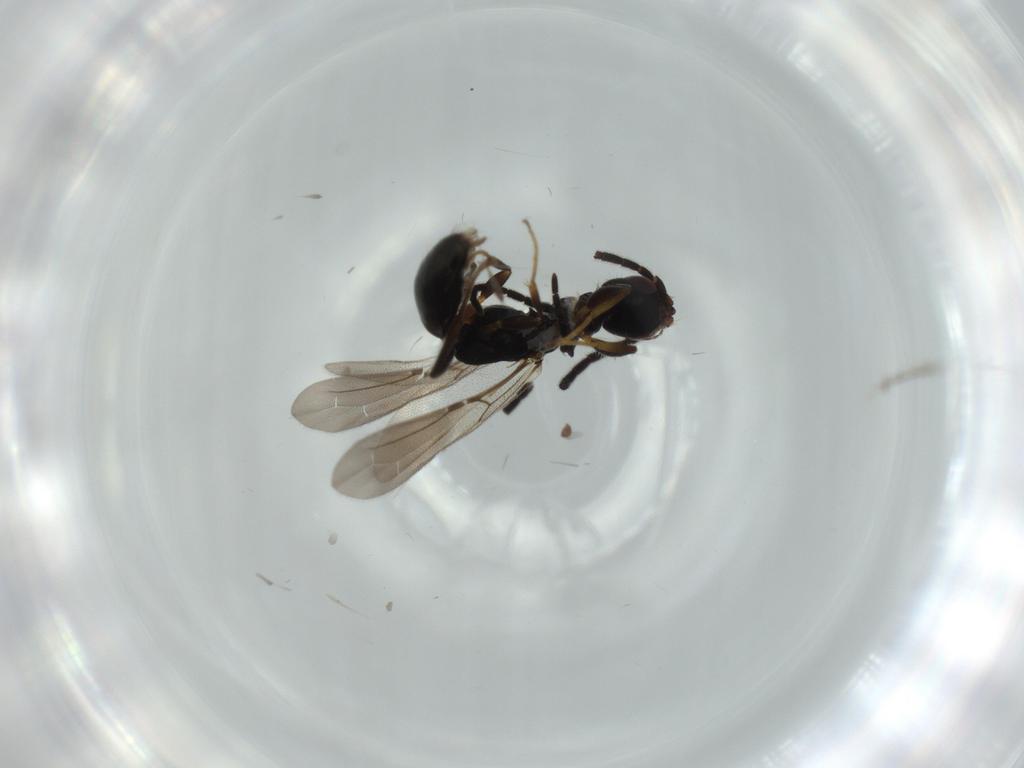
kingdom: Animalia
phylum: Arthropoda
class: Insecta
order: Hymenoptera
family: Bethylidae
